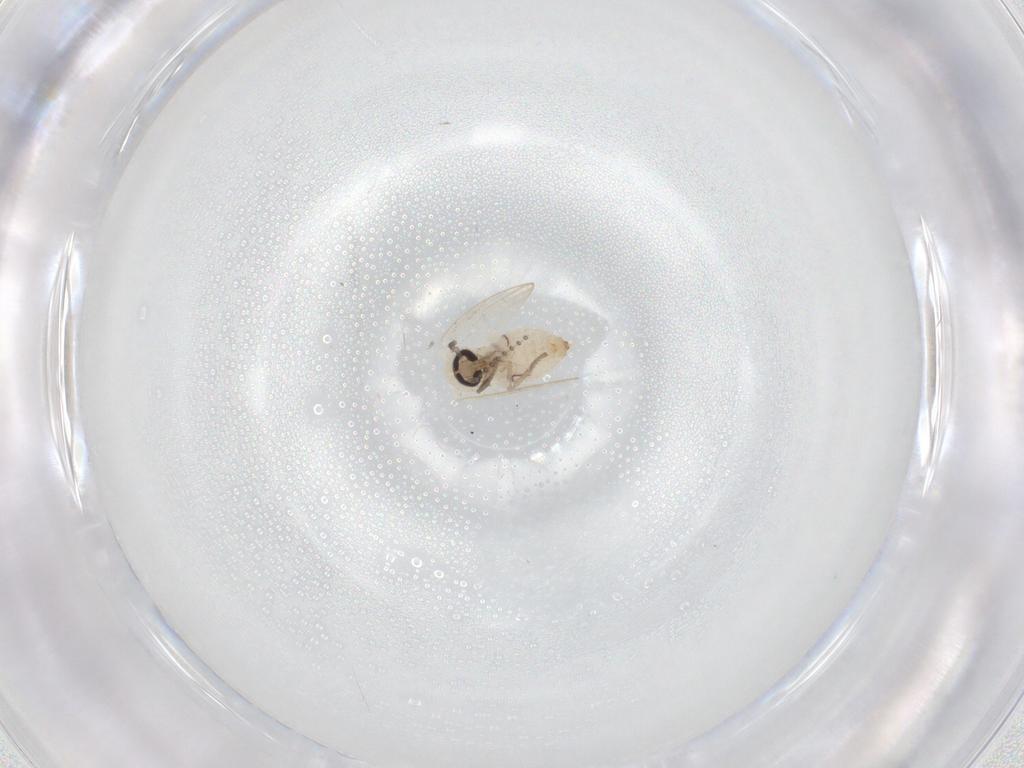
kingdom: Animalia
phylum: Arthropoda
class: Insecta
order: Diptera
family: Psychodidae
